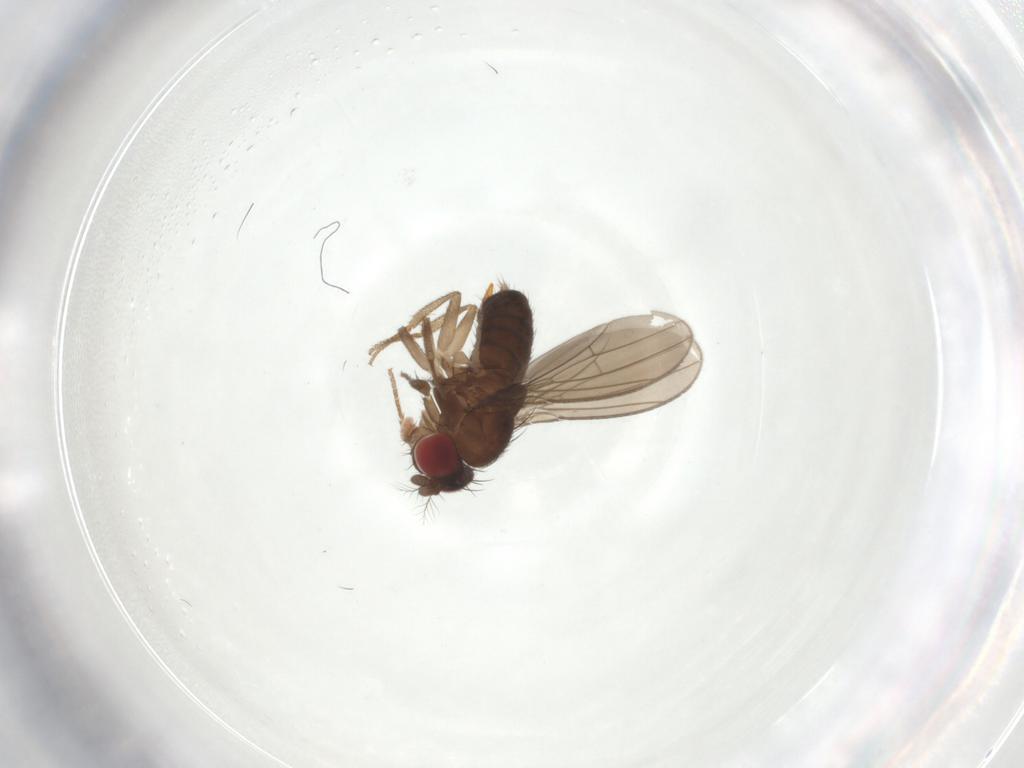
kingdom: Animalia
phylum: Arthropoda
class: Insecta
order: Diptera
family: Drosophilidae
